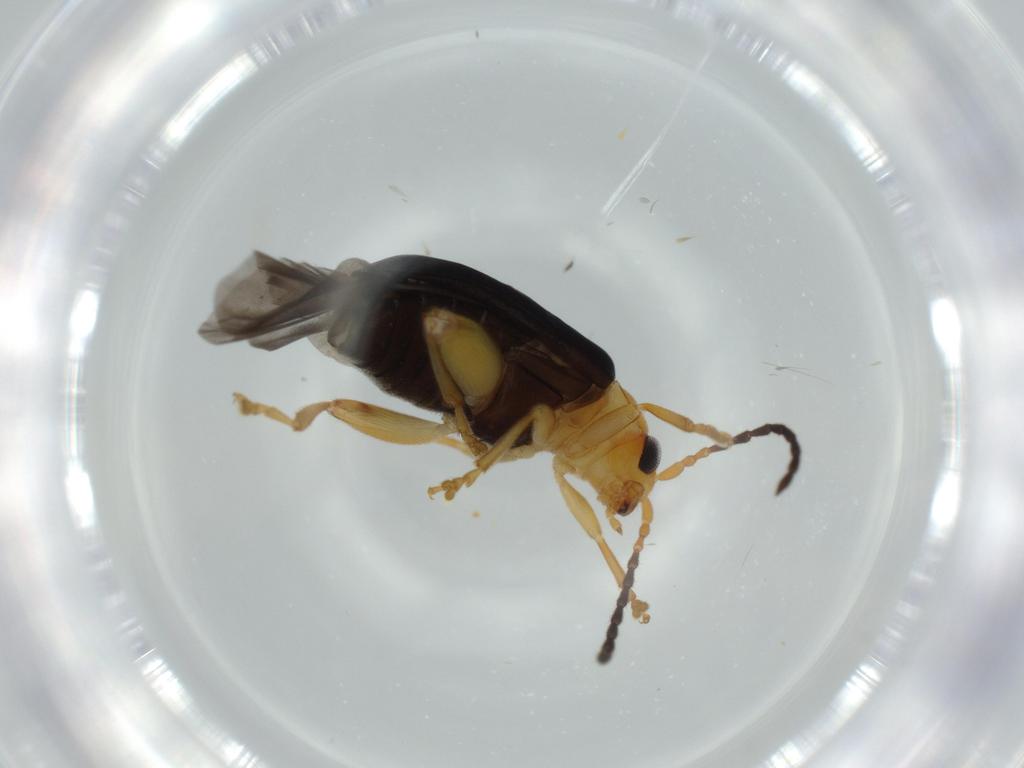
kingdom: Animalia
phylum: Arthropoda
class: Insecta
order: Coleoptera
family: Chrysomelidae
